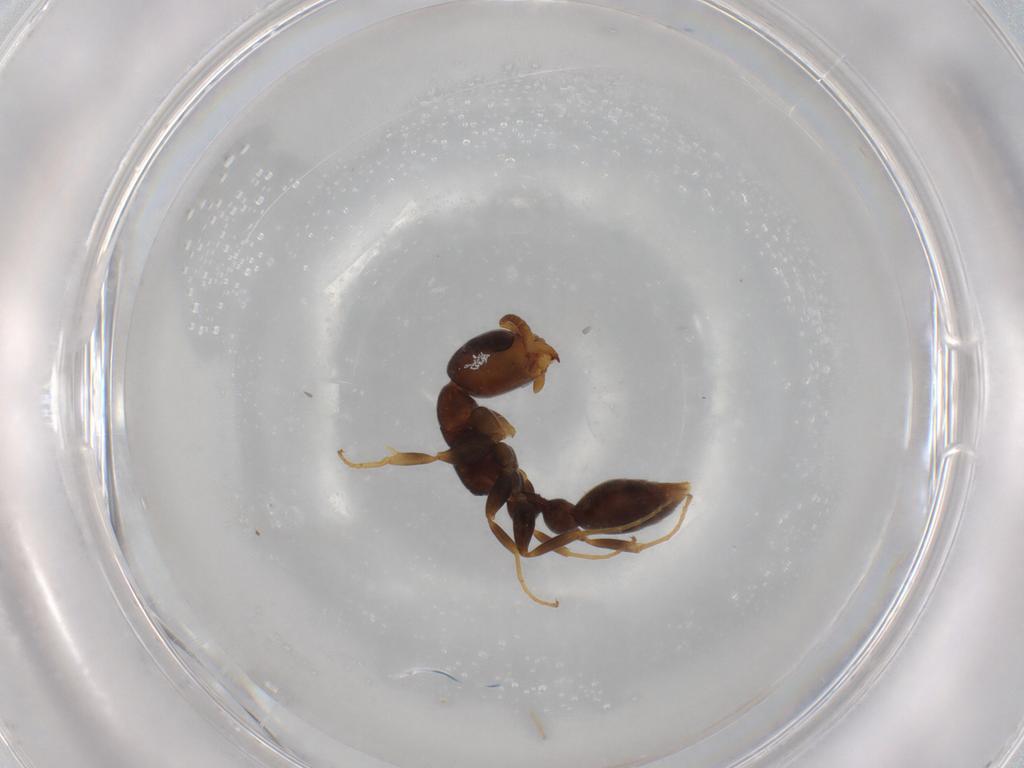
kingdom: Animalia
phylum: Arthropoda
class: Insecta
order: Hymenoptera
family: Formicidae
